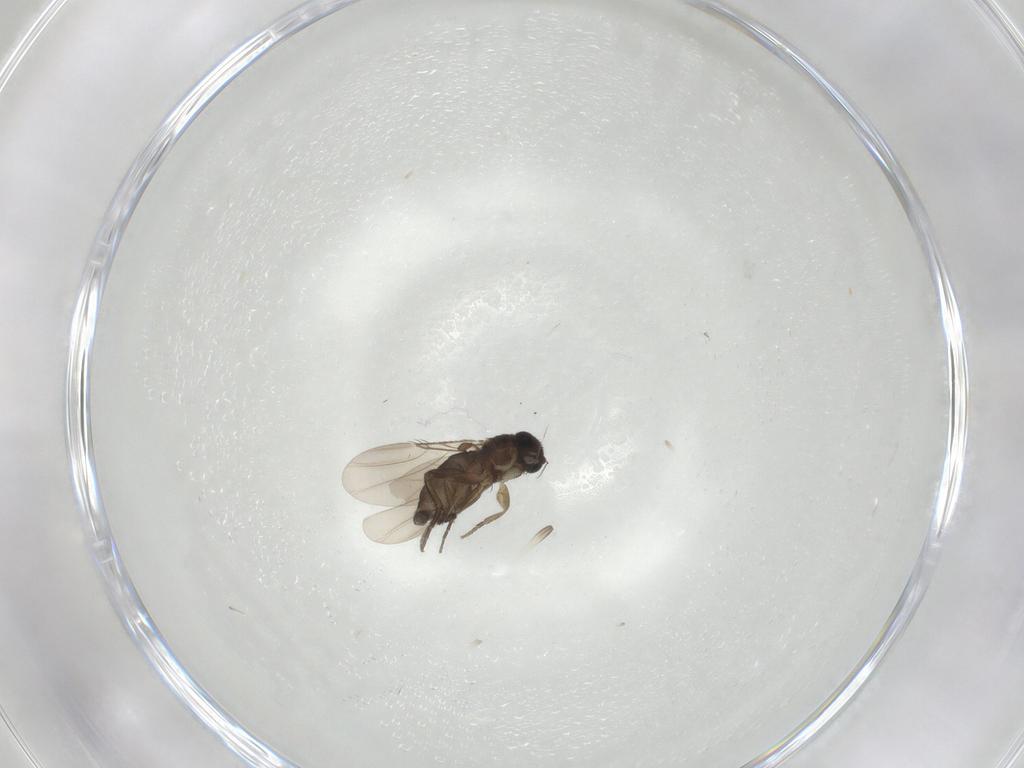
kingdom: Animalia
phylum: Arthropoda
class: Insecta
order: Diptera
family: Phoridae
